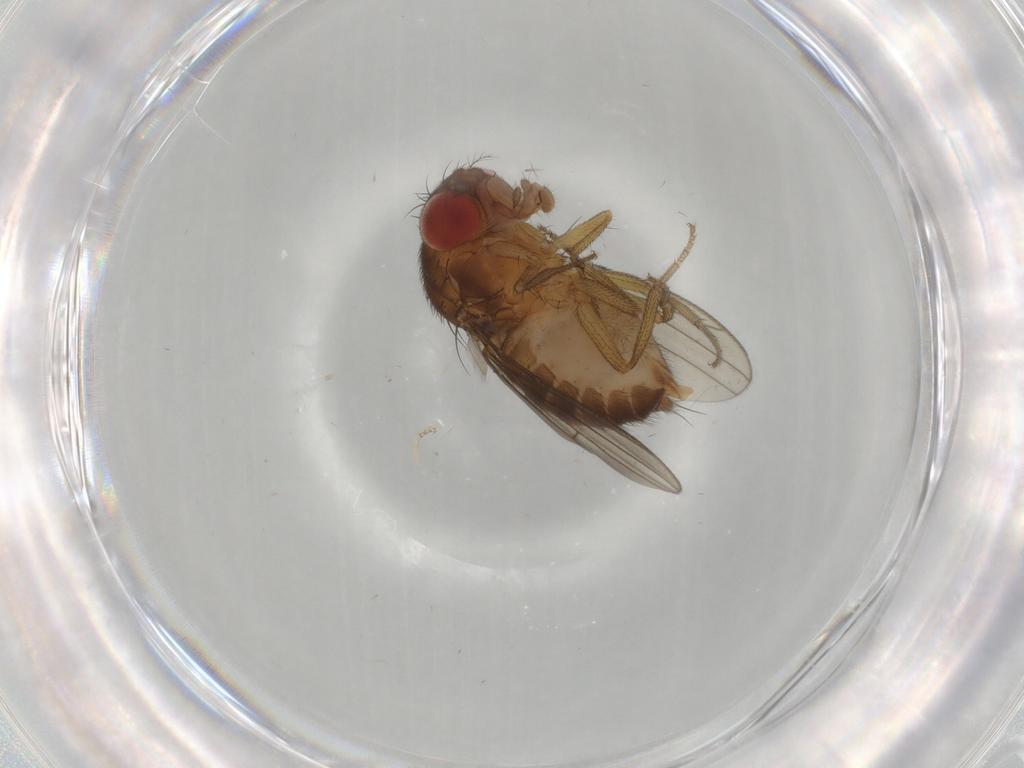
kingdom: Animalia
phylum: Arthropoda
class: Insecta
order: Diptera
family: Drosophilidae
